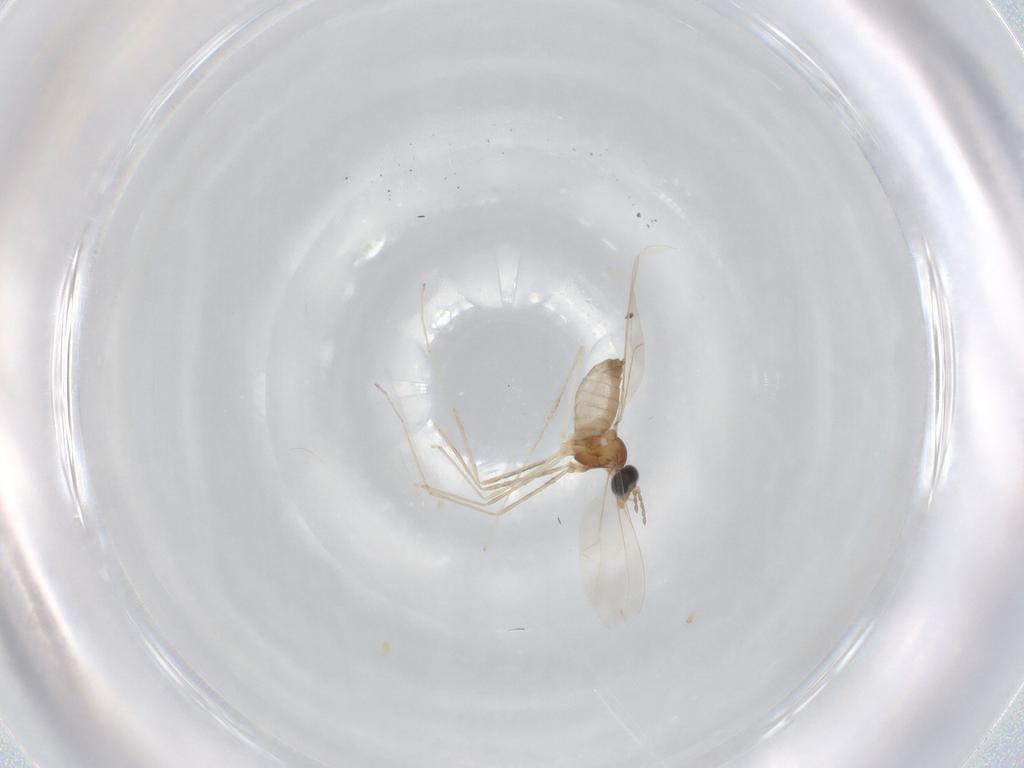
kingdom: Animalia
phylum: Arthropoda
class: Insecta
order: Diptera
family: Cecidomyiidae
